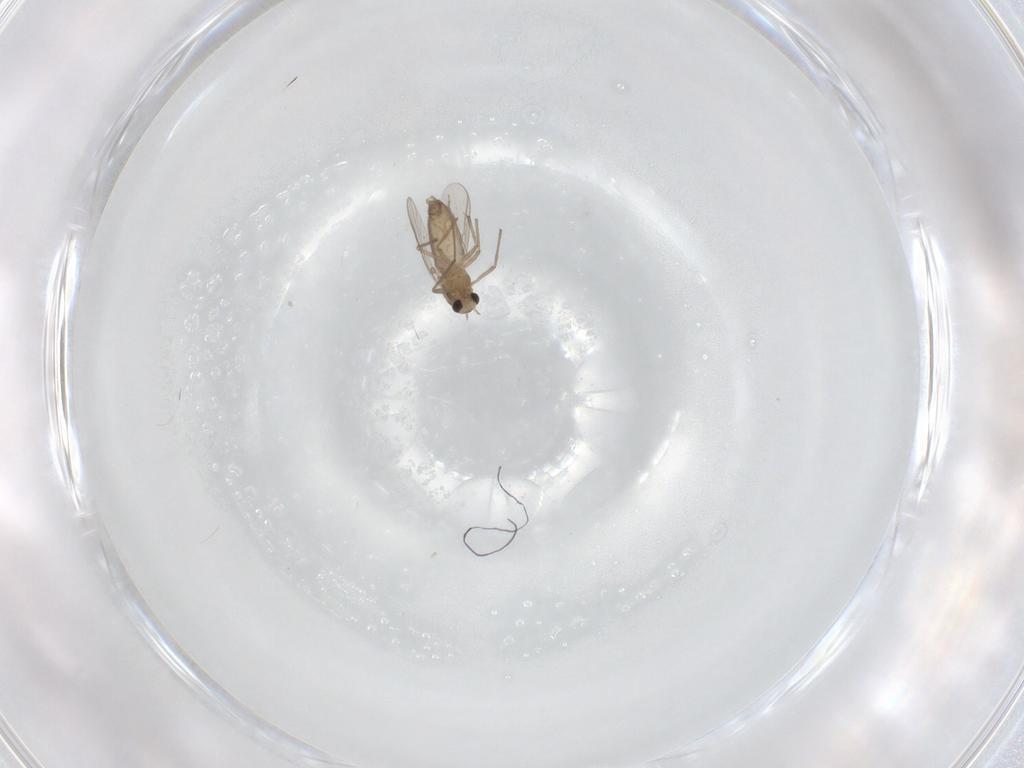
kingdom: Animalia
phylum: Arthropoda
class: Insecta
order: Diptera
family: Chironomidae
